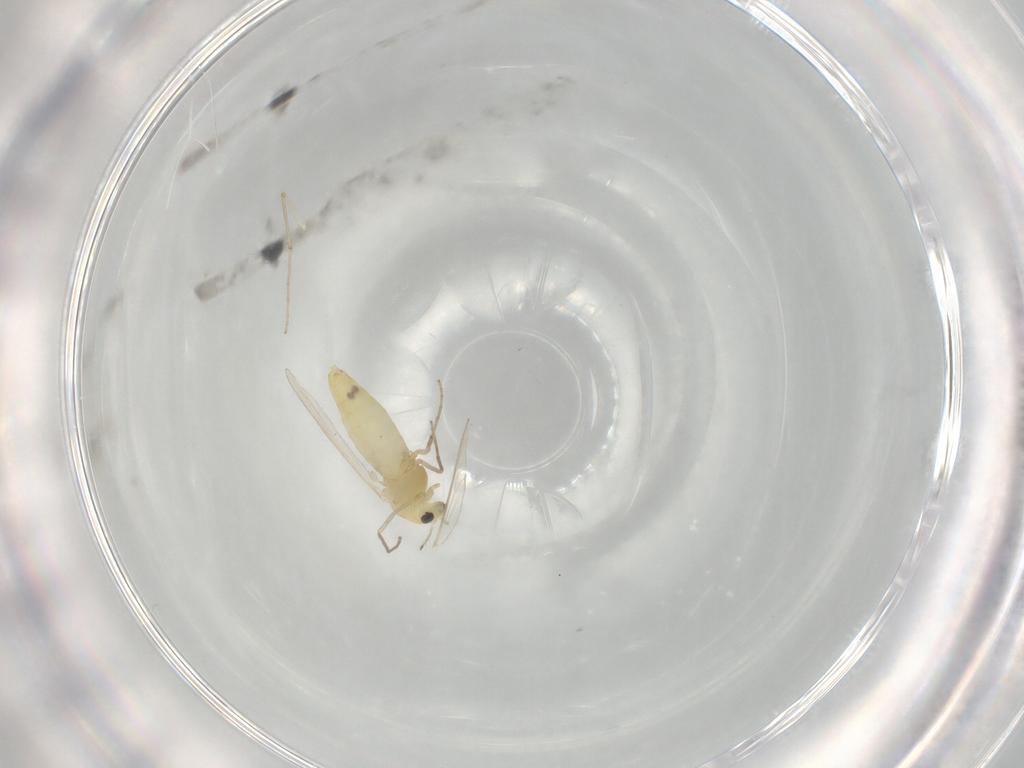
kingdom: Animalia
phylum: Arthropoda
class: Insecta
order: Diptera
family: Chironomidae
